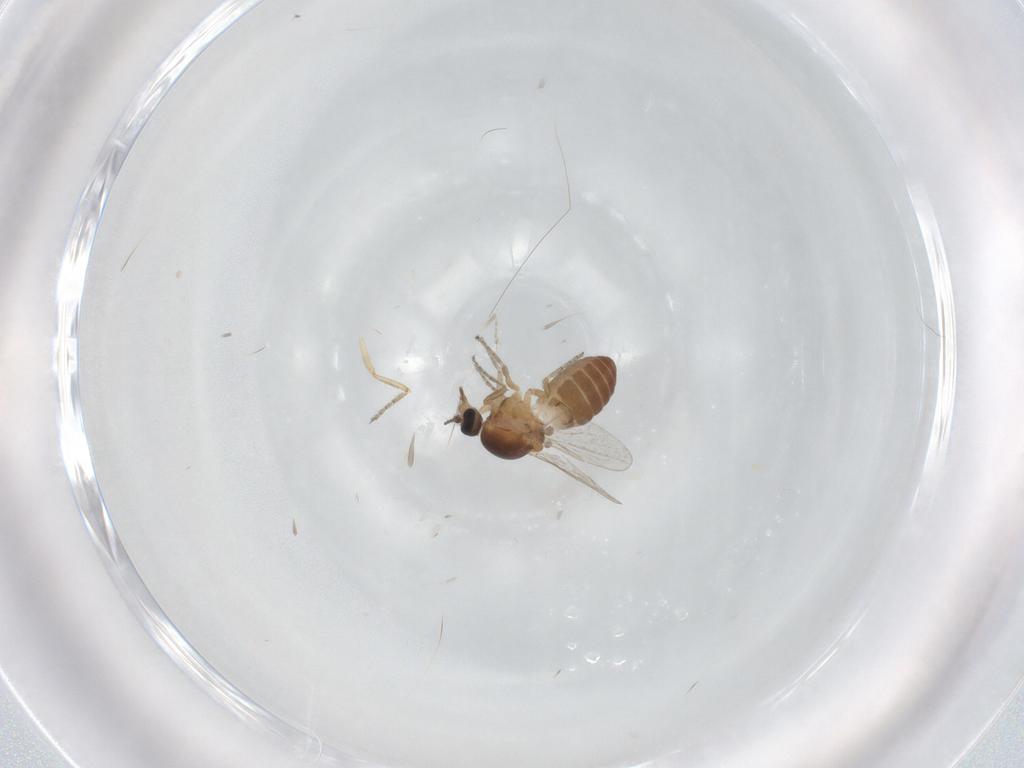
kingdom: Animalia
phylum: Arthropoda
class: Insecta
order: Diptera
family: Ceratopogonidae
